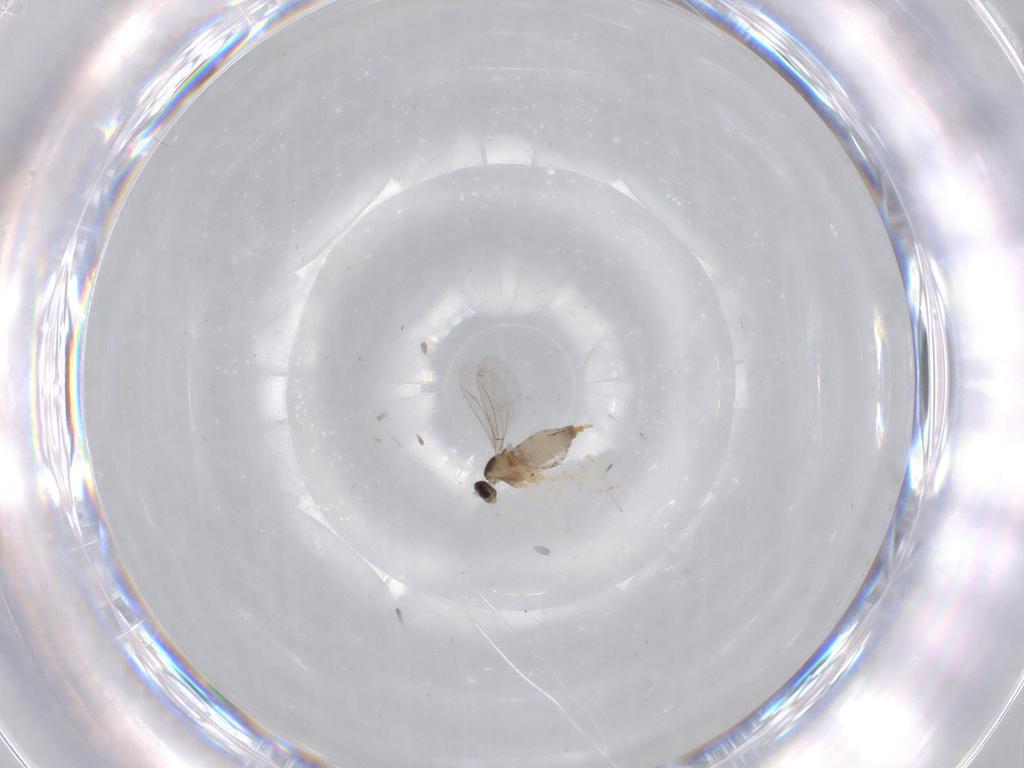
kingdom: Animalia
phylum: Arthropoda
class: Insecta
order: Diptera
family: Cecidomyiidae
